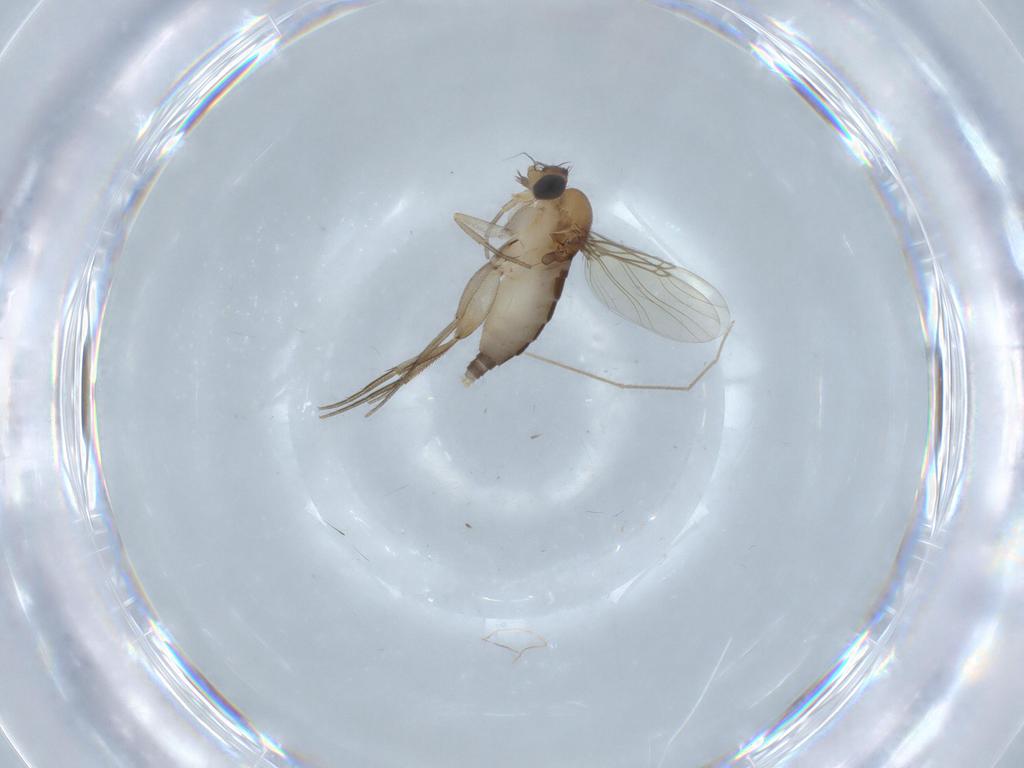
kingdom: Animalia
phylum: Arthropoda
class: Insecta
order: Diptera
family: Phoridae
